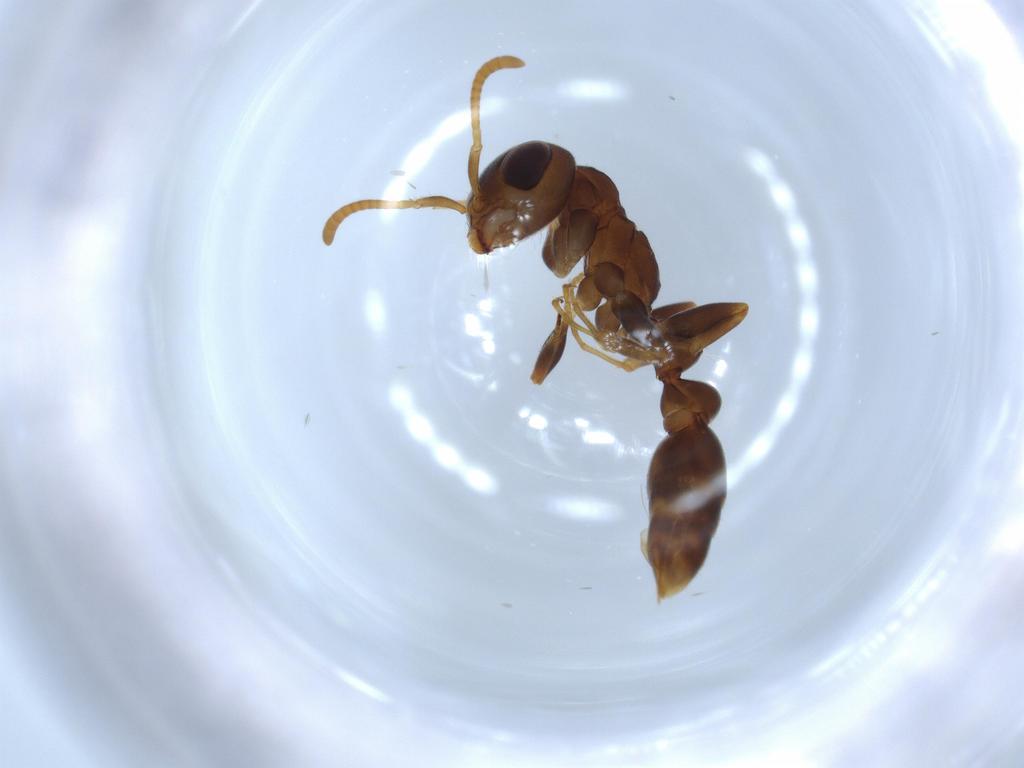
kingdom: Animalia
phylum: Arthropoda
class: Insecta
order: Hymenoptera
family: Formicidae
